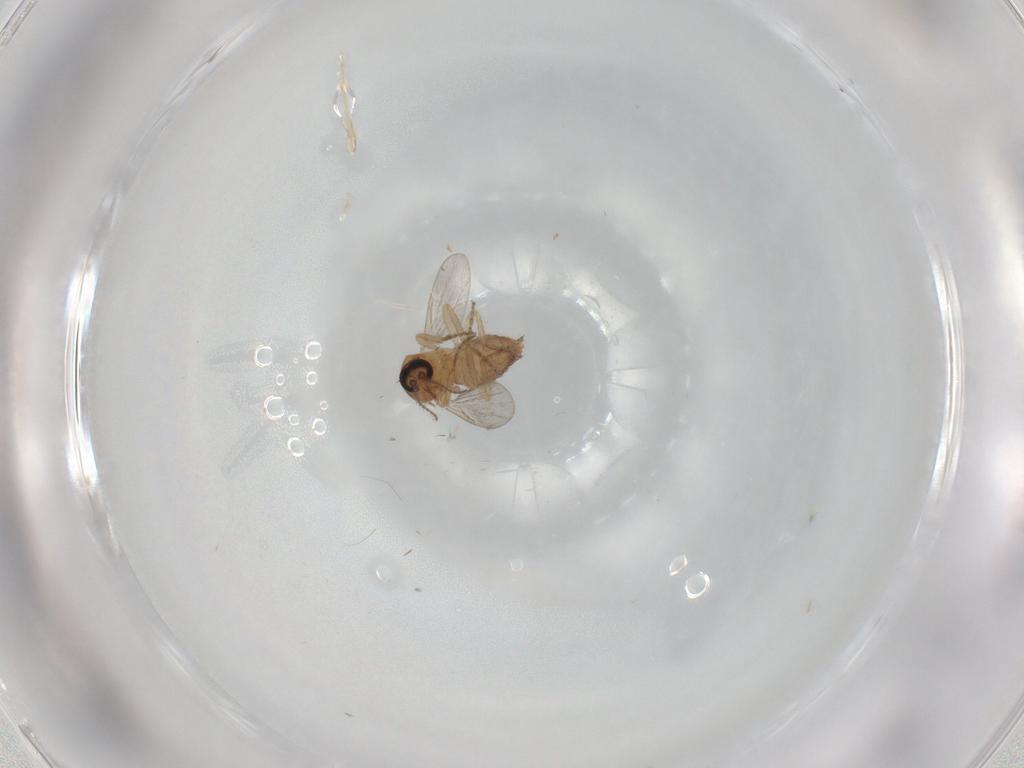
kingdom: Animalia
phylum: Arthropoda
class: Insecta
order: Diptera
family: Ceratopogonidae
